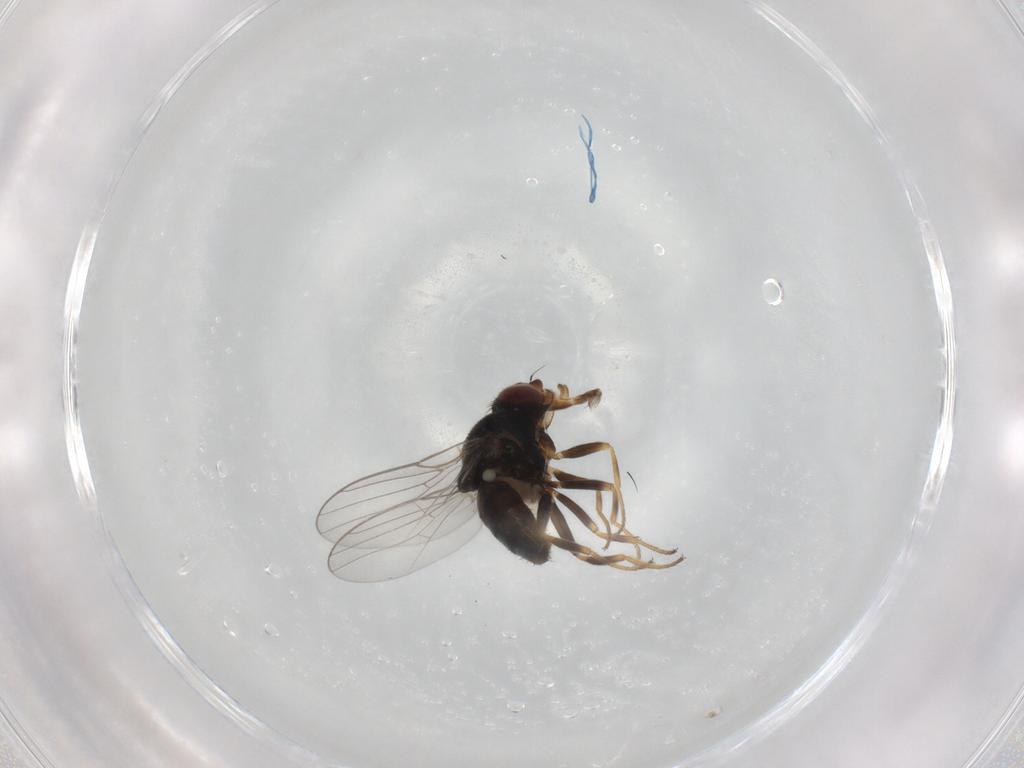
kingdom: Animalia
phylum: Arthropoda
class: Insecta
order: Diptera
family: Chloropidae
